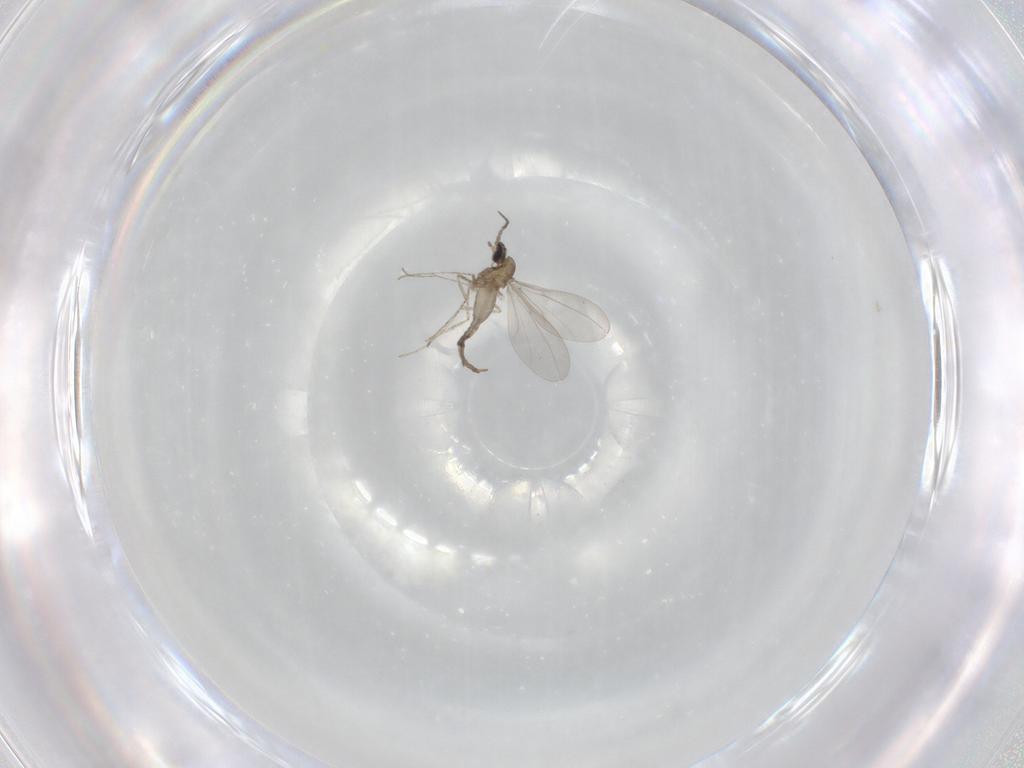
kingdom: Animalia
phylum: Arthropoda
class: Insecta
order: Diptera
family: Cecidomyiidae
